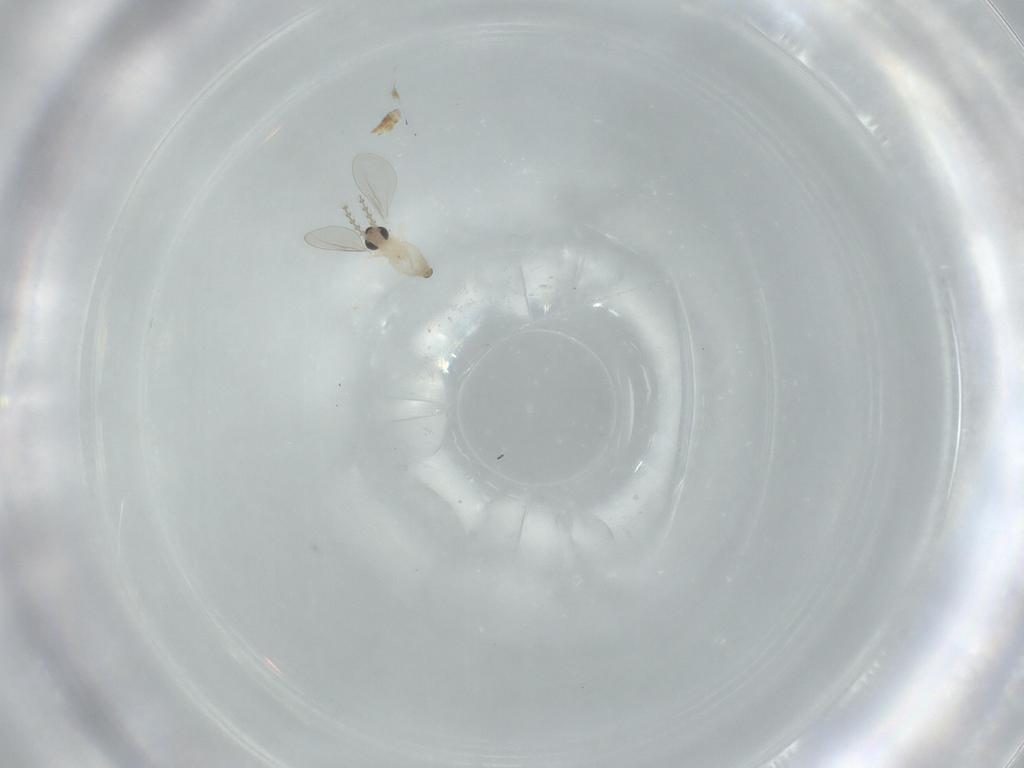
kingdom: Animalia
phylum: Arthropoda
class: Insecta
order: Diptera
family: Cecidomyiidae
